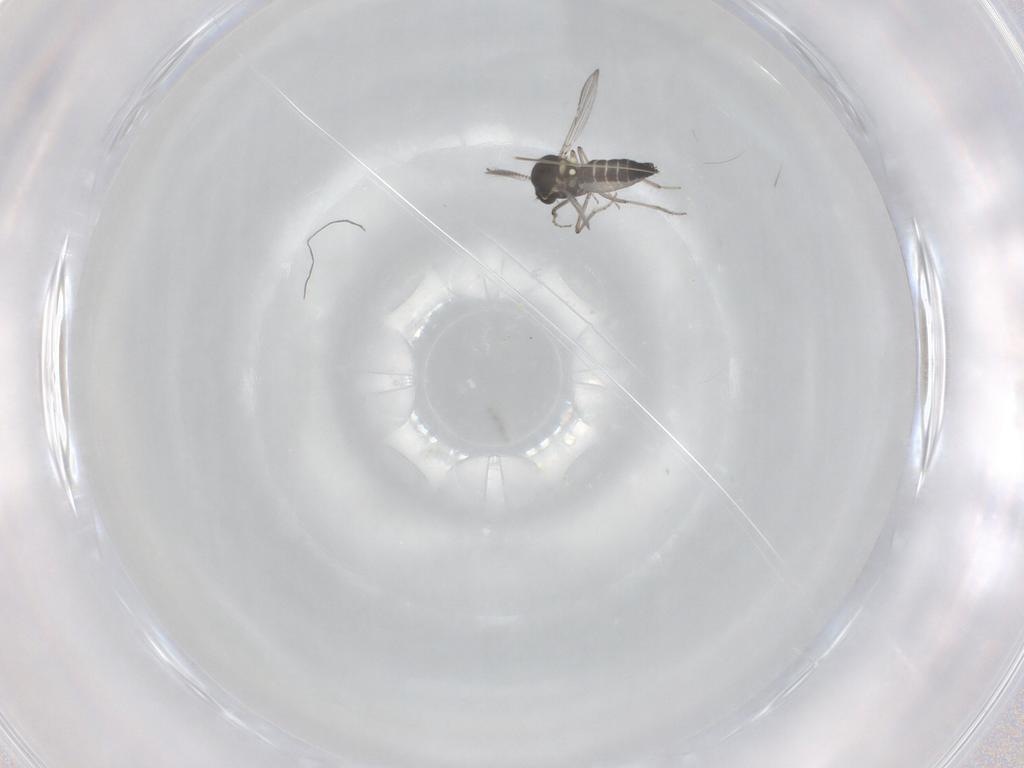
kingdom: Animalia
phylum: Arthropoda
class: Insecta
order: Diptera
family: Ceratopogonidae
